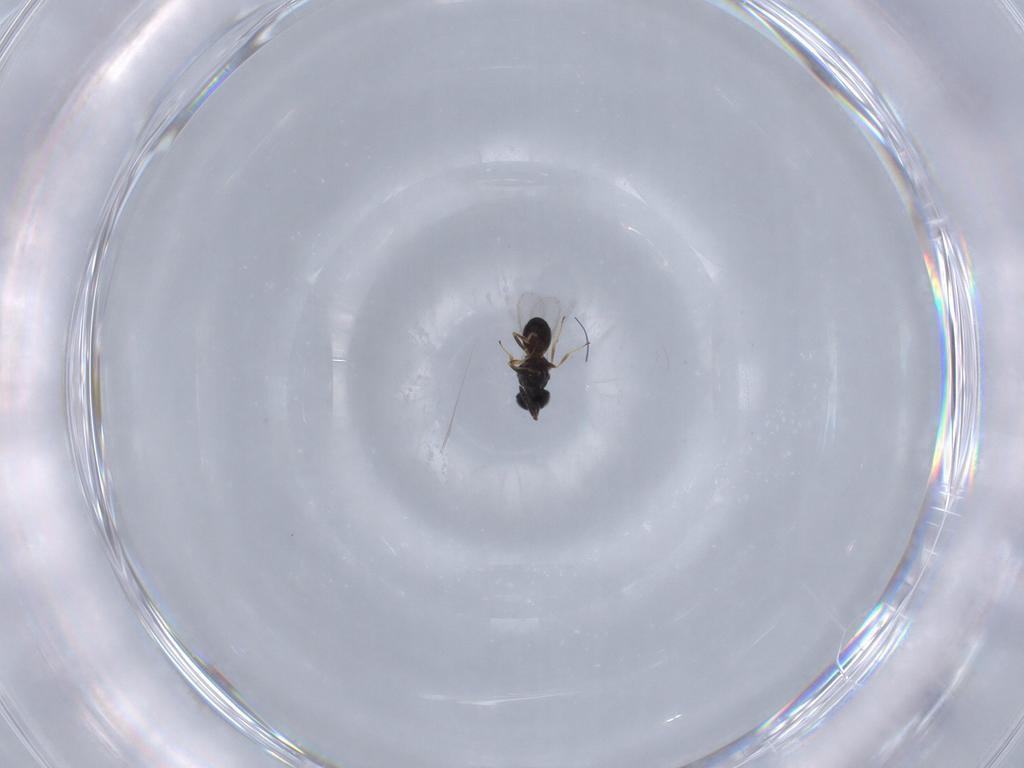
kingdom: Animalia
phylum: Arthropoda
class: Insecta
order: Hymenoptera
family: Scelionidae
